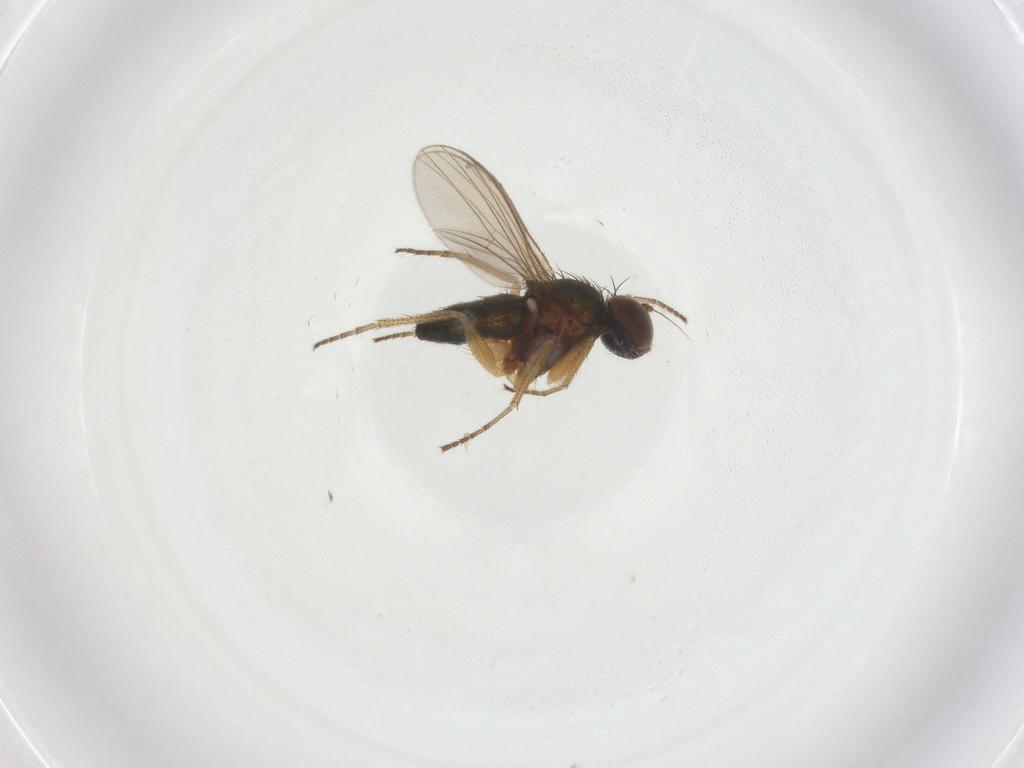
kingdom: Animalia
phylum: Arthropoda
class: Insecta
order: Diptera
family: Dolichopodidae
